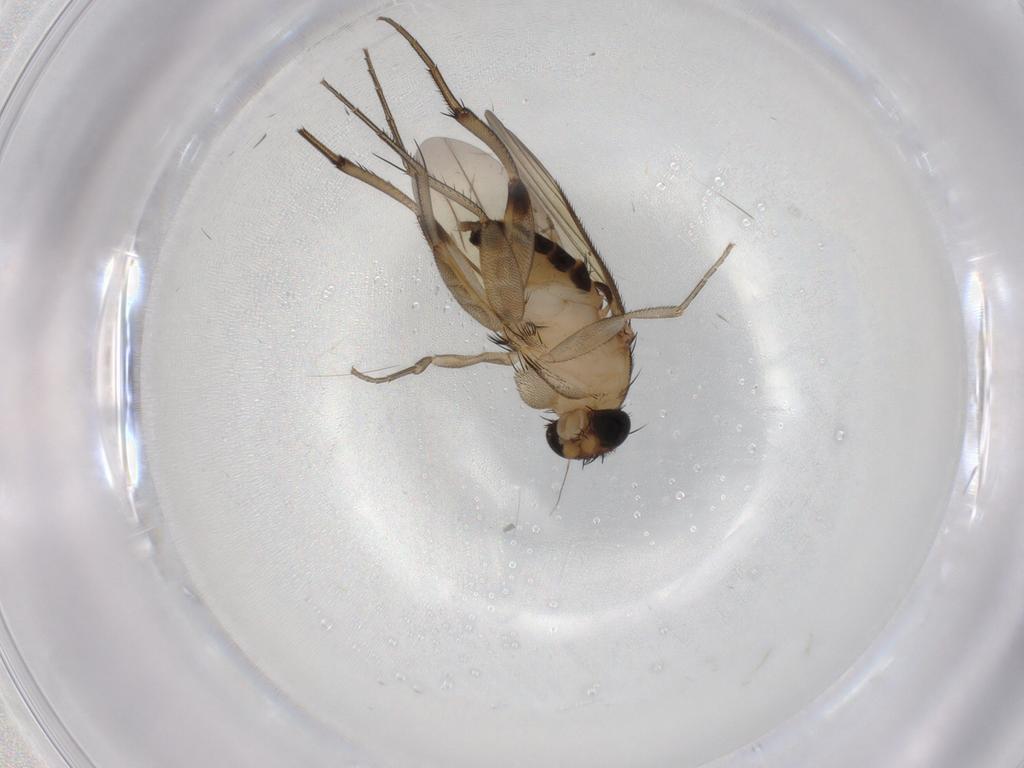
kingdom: Animalia
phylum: Arthropoda
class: Insecta
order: Diptera
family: Phoridae
